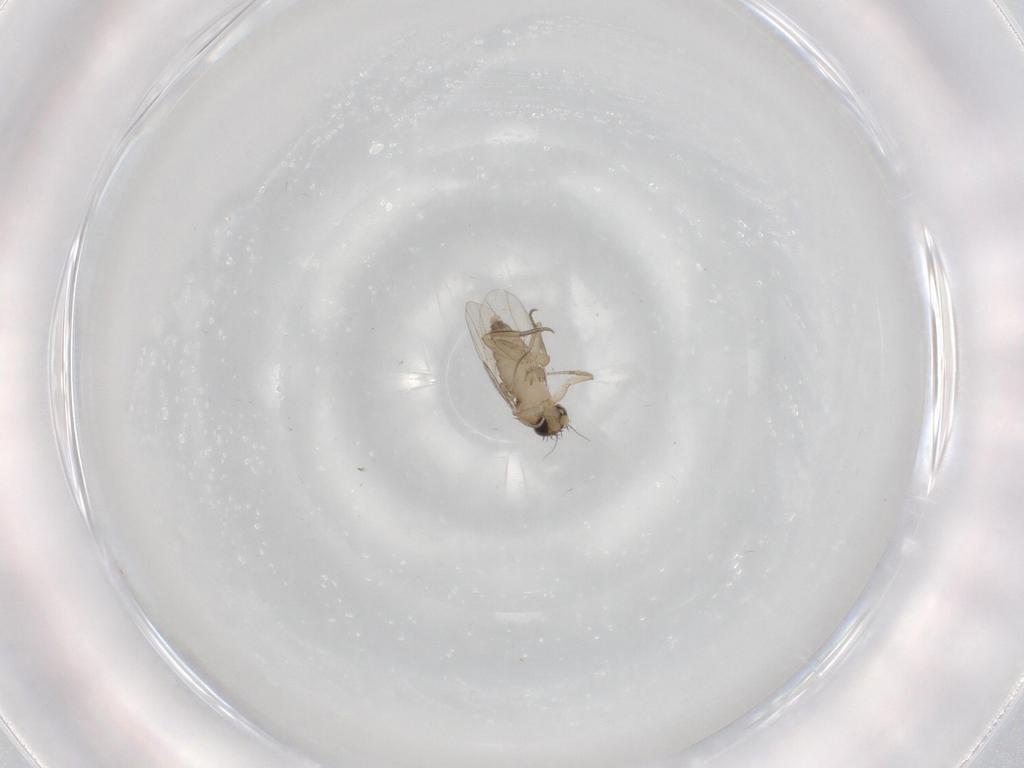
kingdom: Animalia
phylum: Arthropoda
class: Insecta
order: Diptera
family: Phoridae
